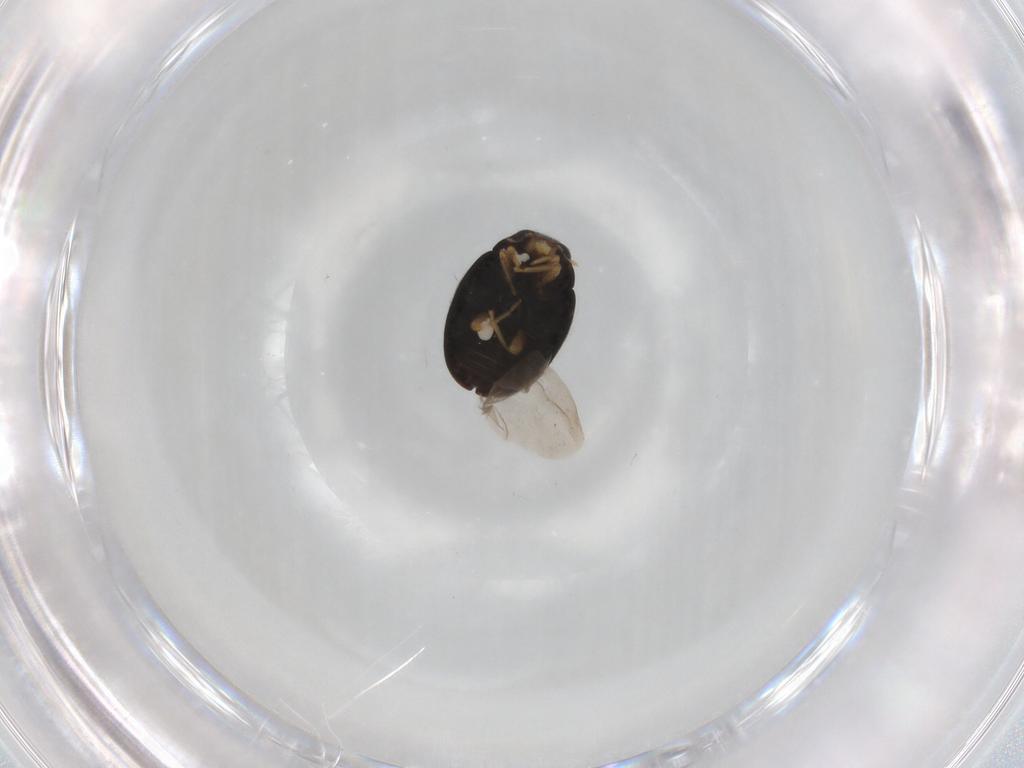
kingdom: Animalia
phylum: Arthropoda
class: Insecta
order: Coleoptera
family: Coccinellidae
